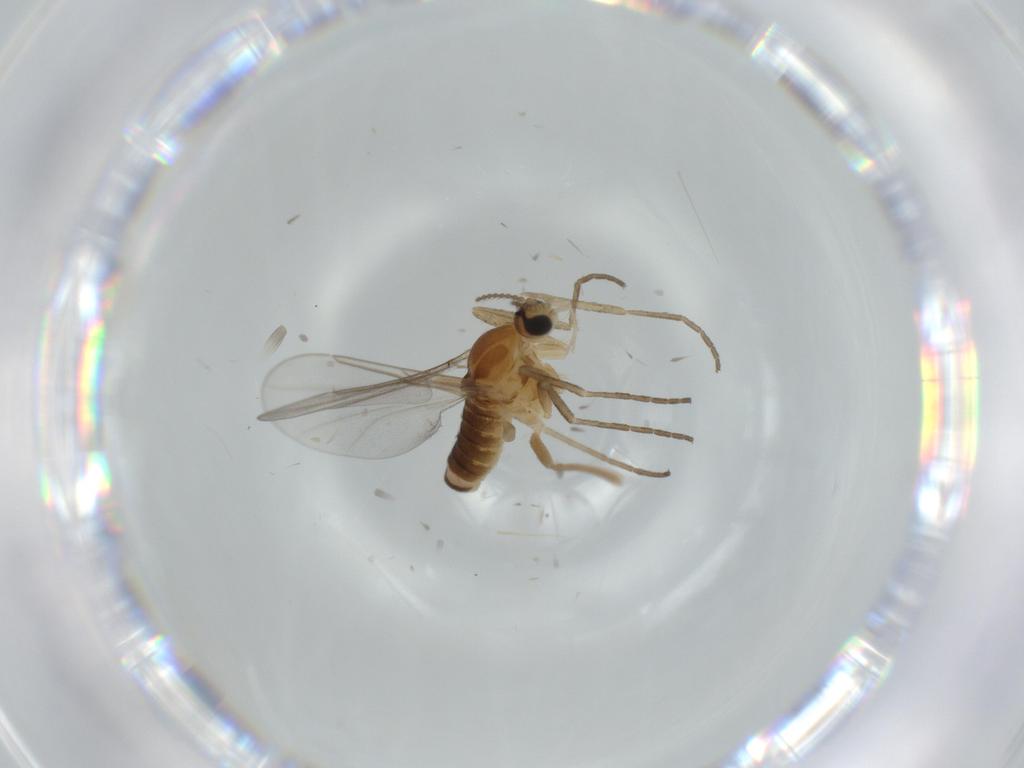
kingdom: Animalia
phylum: Arthropoda
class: Insecta
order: Diptera
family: Cecidomyiidae
